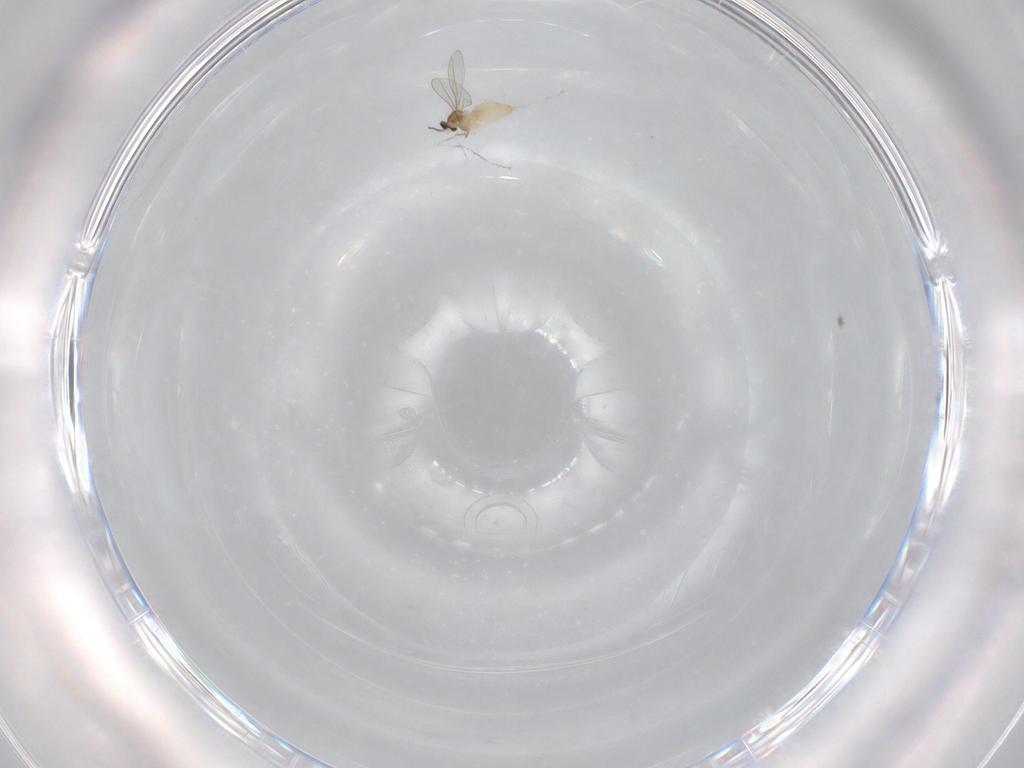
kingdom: Animalia
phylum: Arthropoda
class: Insecta
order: Diptera
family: Cecidomyiidae
